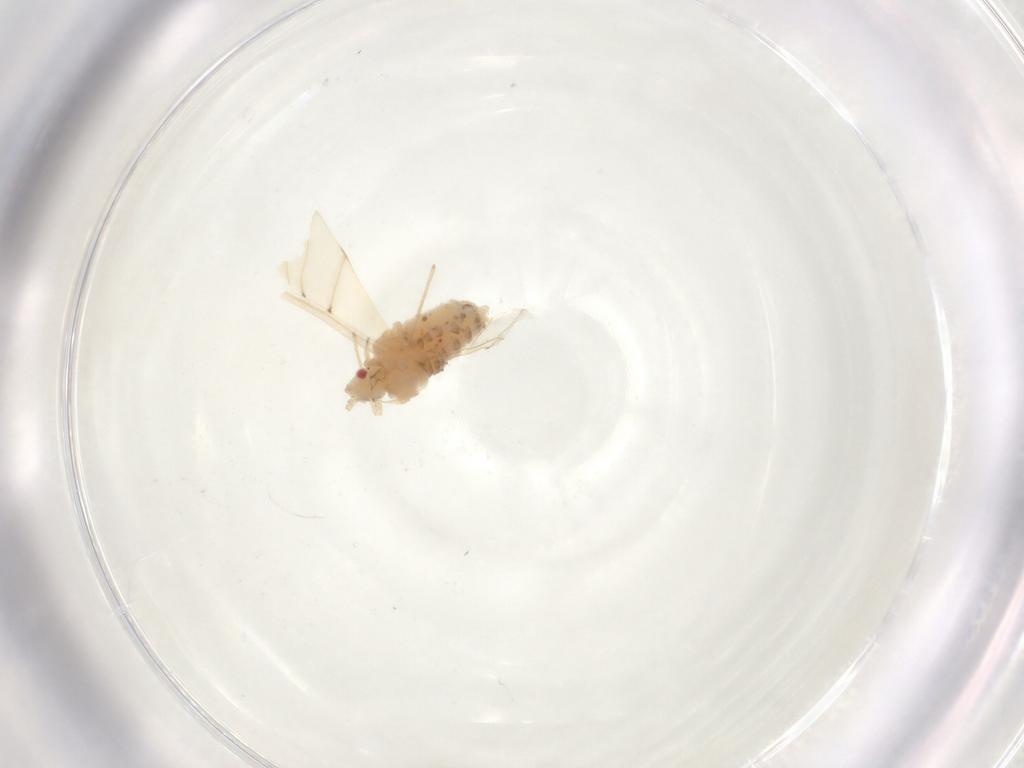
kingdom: Animalia
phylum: Arthropoda
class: Insecta
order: Hemiptera
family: Aphididae
